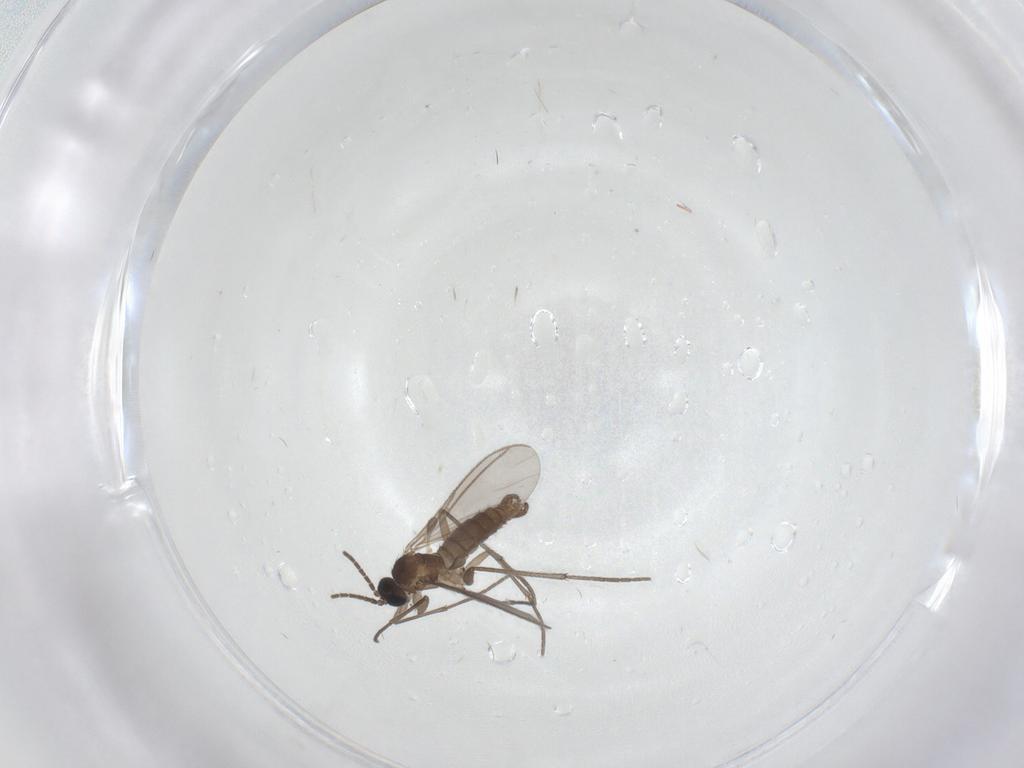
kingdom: Animalia
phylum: Arthropoda
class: Insecta
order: Diptera
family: Sciaridae
